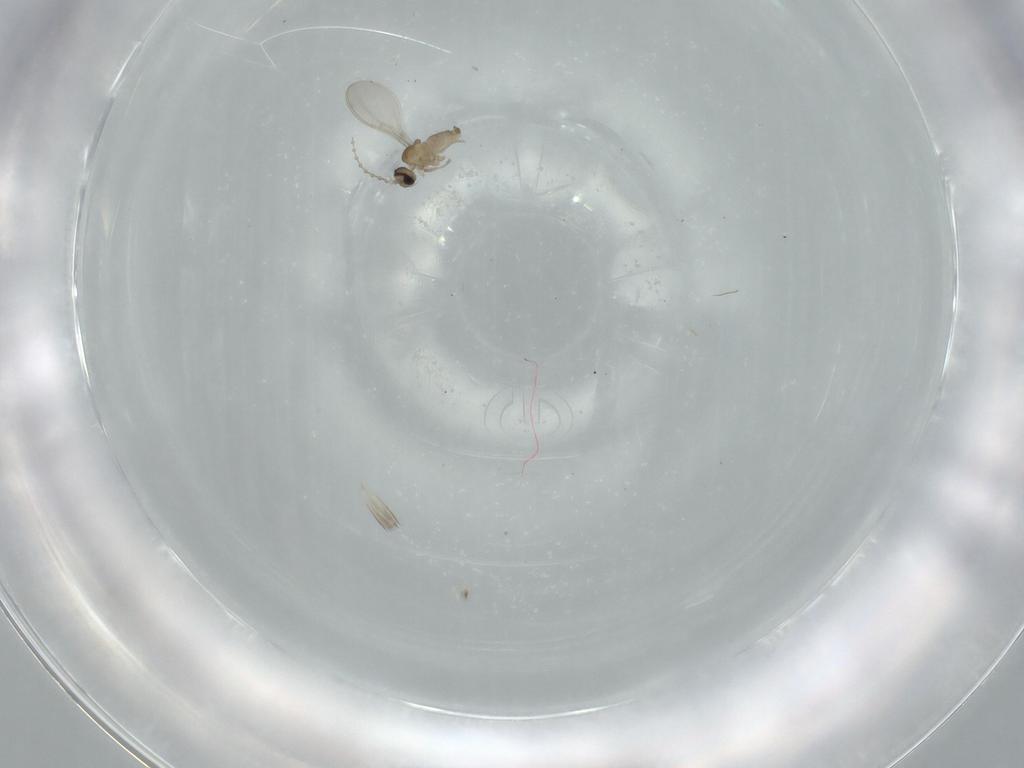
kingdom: Animalia
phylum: Arthropoda
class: Insecta
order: Diptera
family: Cecidomyiidae
